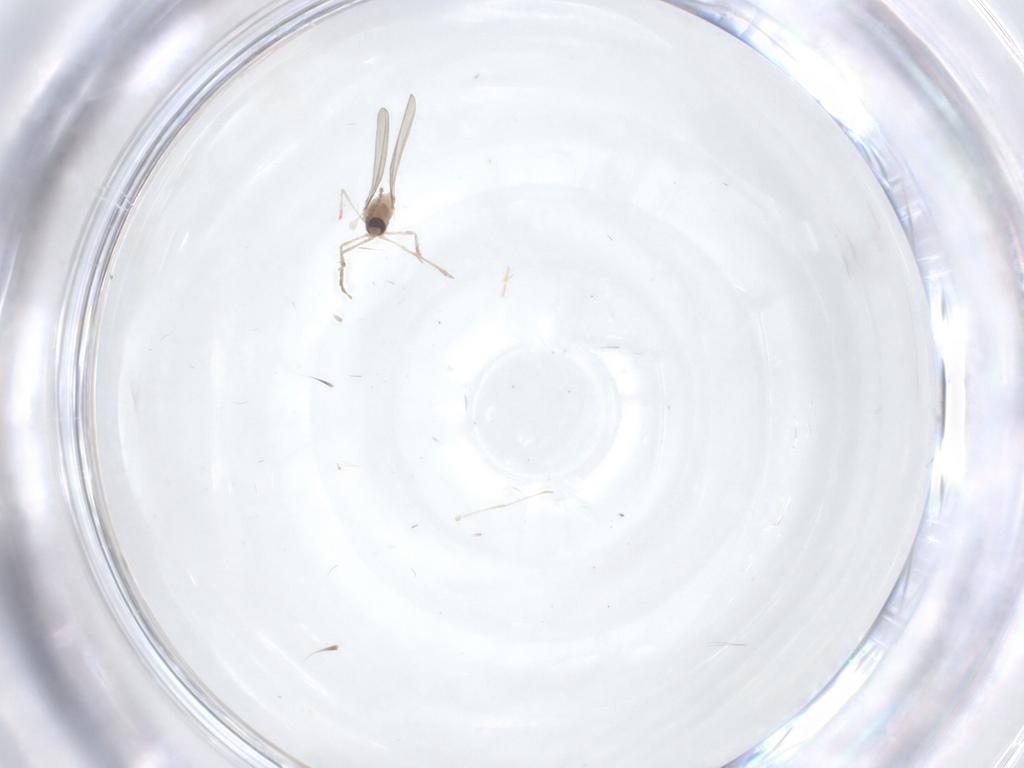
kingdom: Animalia
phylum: Arthropoda
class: Insecta
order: Diptera
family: Cecidomyiidae
